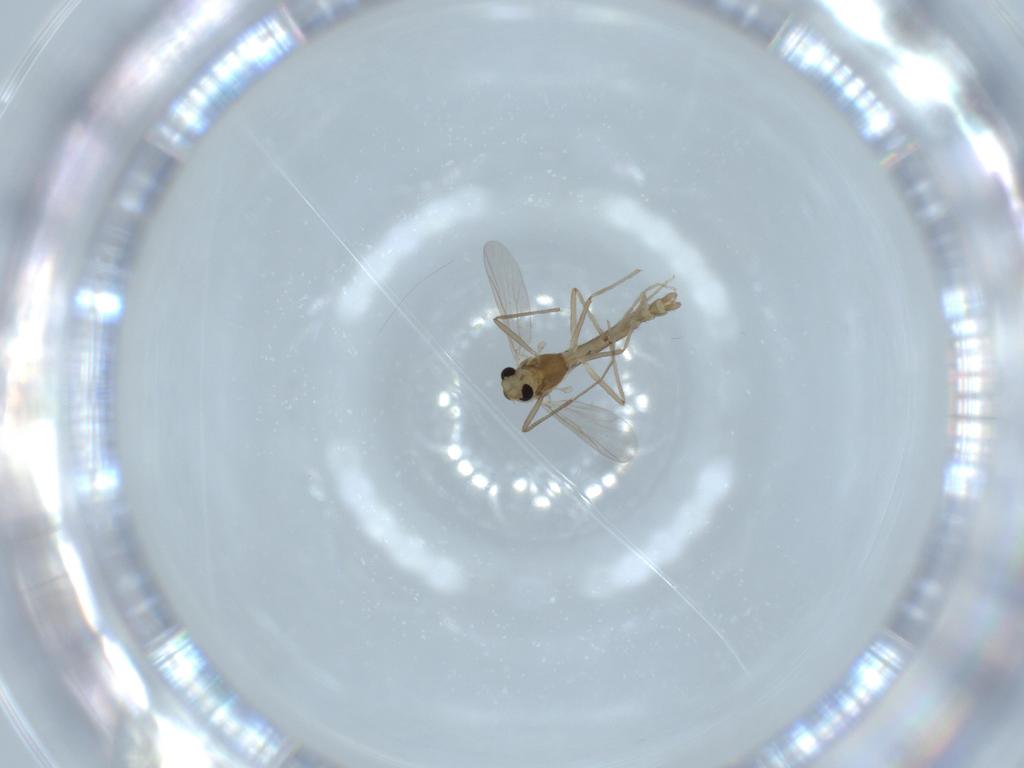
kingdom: Animalia
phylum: Arthropoda
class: Insecta
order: Diptera
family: Chironomidae
